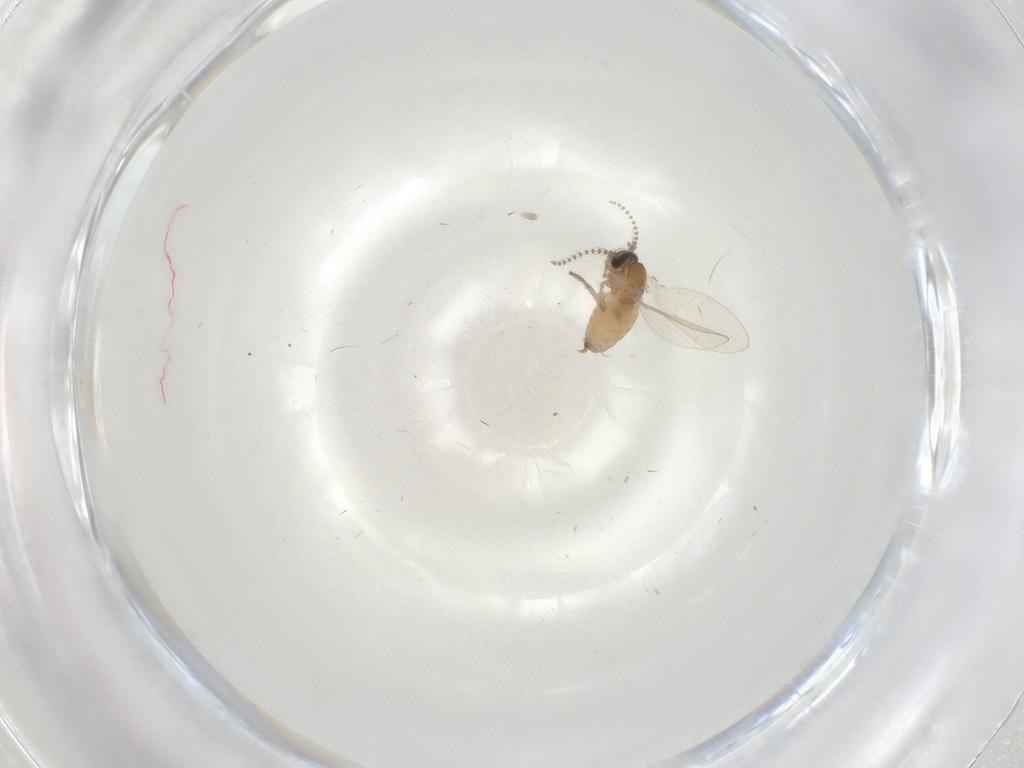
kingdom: Animalia
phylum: Arthropoda
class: Insecta
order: Diptera
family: Psychodidae
